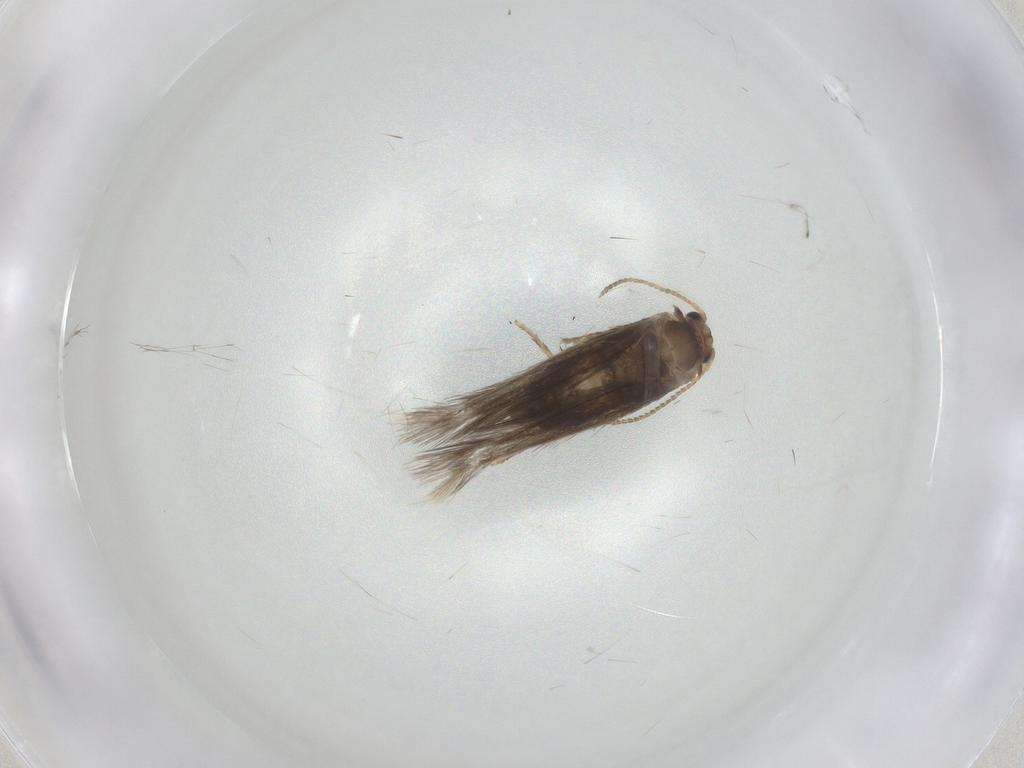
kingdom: Animalia
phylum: Arthropoda
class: Insecta
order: Lepidoptera
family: Nepticulidae
